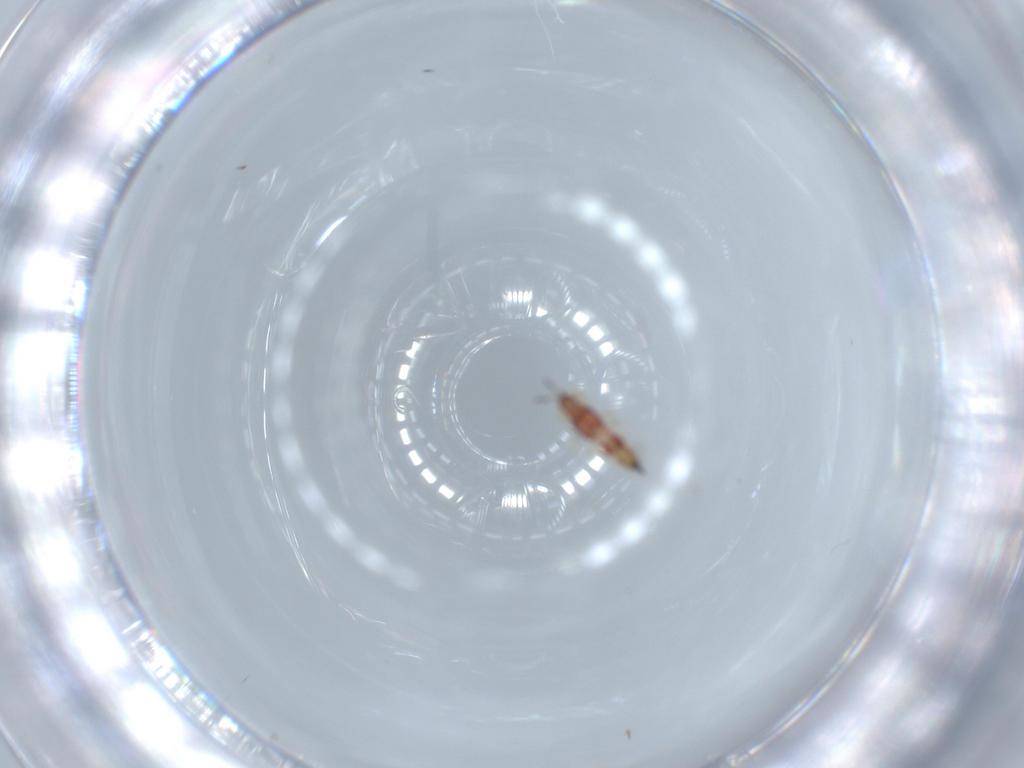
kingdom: Animalia
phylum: Arthropoda
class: Insecta
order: Thysanoptera
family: Phlaeothripidae
